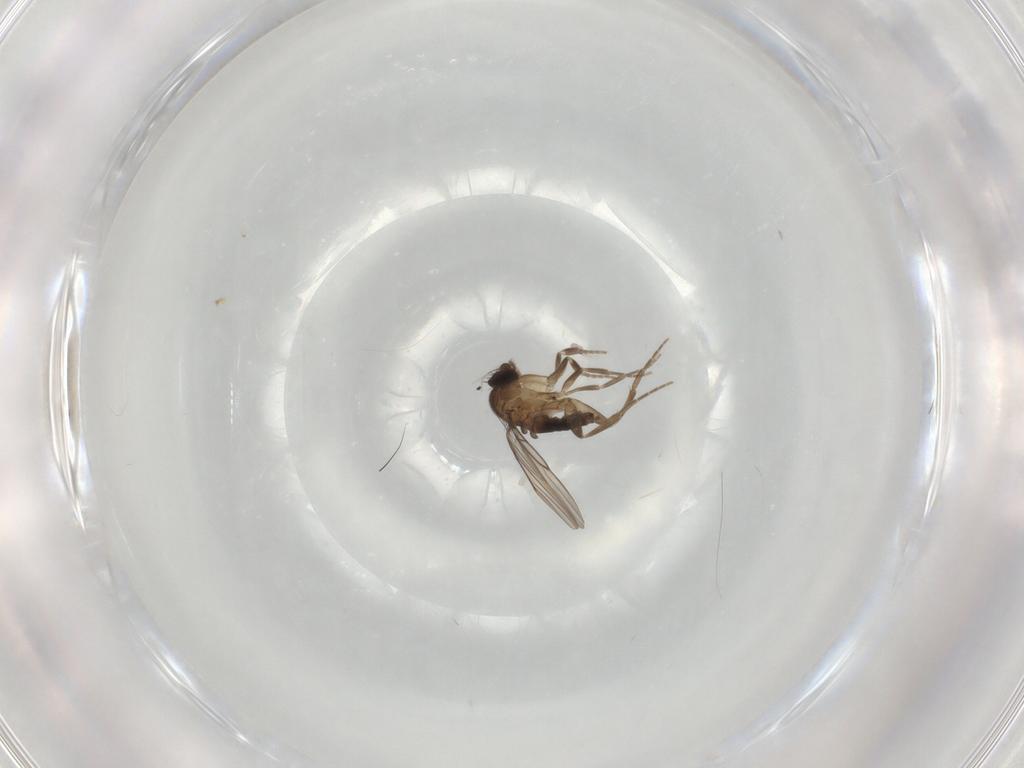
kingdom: Animalia
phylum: Arthropoda
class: Insecta
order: Diptera
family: Phoridae
